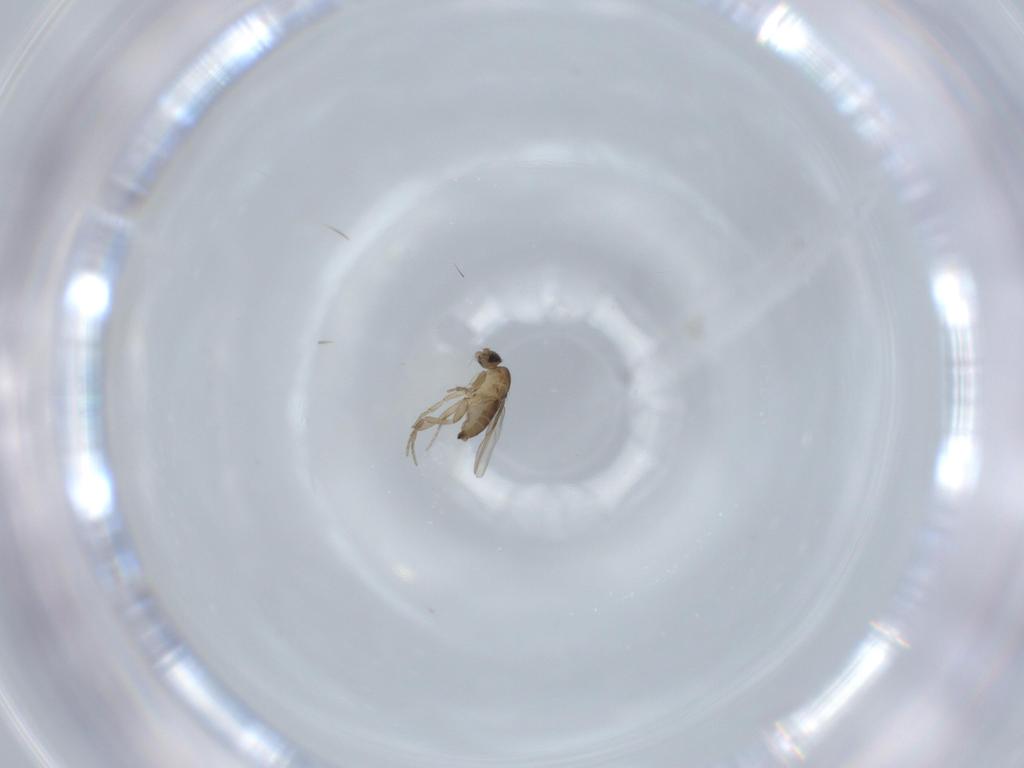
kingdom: Animalia
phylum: Arthropoda
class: Insecta
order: Diptera
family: Phoridae
